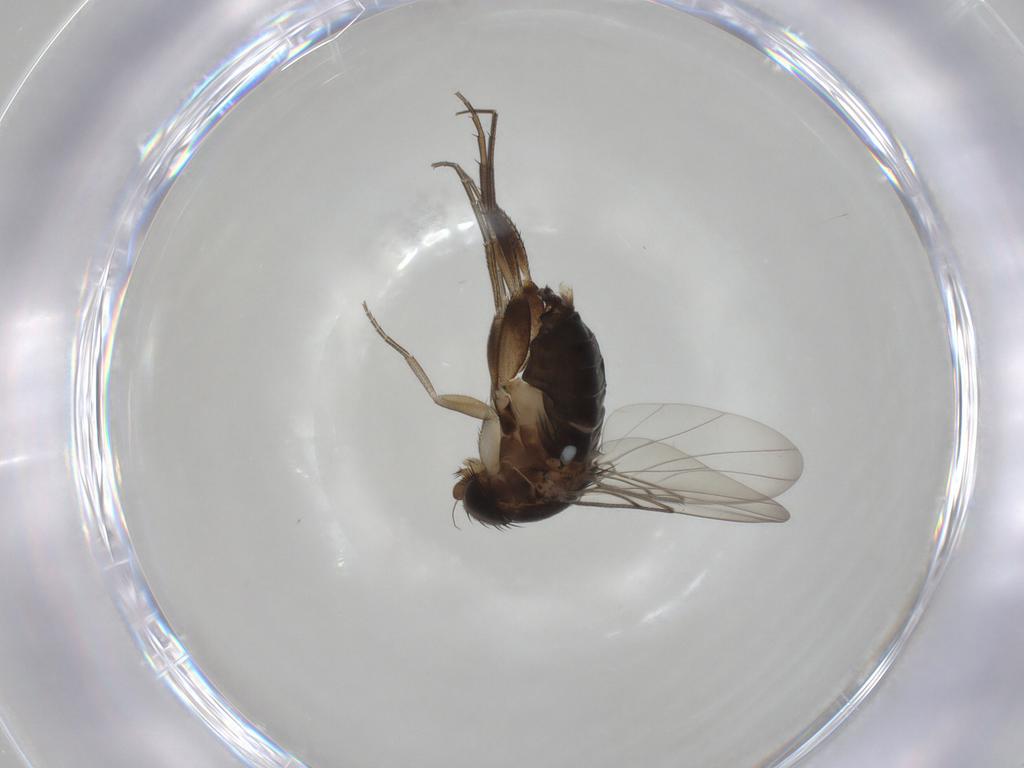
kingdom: Animalia
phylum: Arthropoda
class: Insecta
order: Diptera
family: Phoridae
